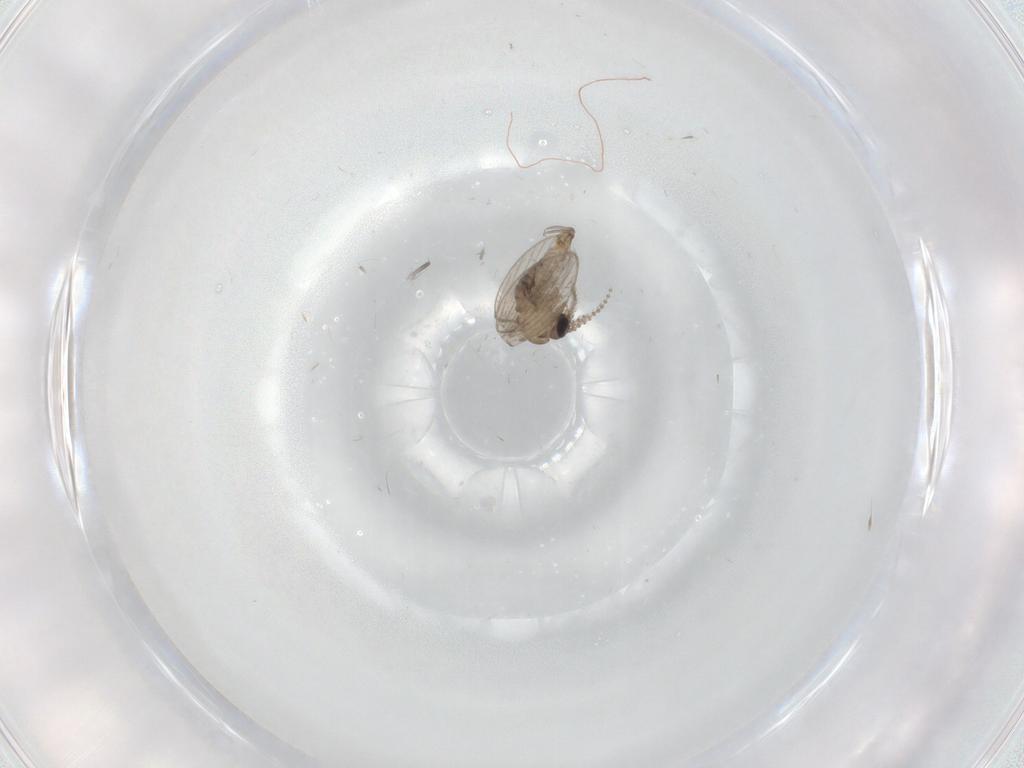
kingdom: Animalia
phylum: Arthropoda
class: Insecta
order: Diptera
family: Psychodidae
